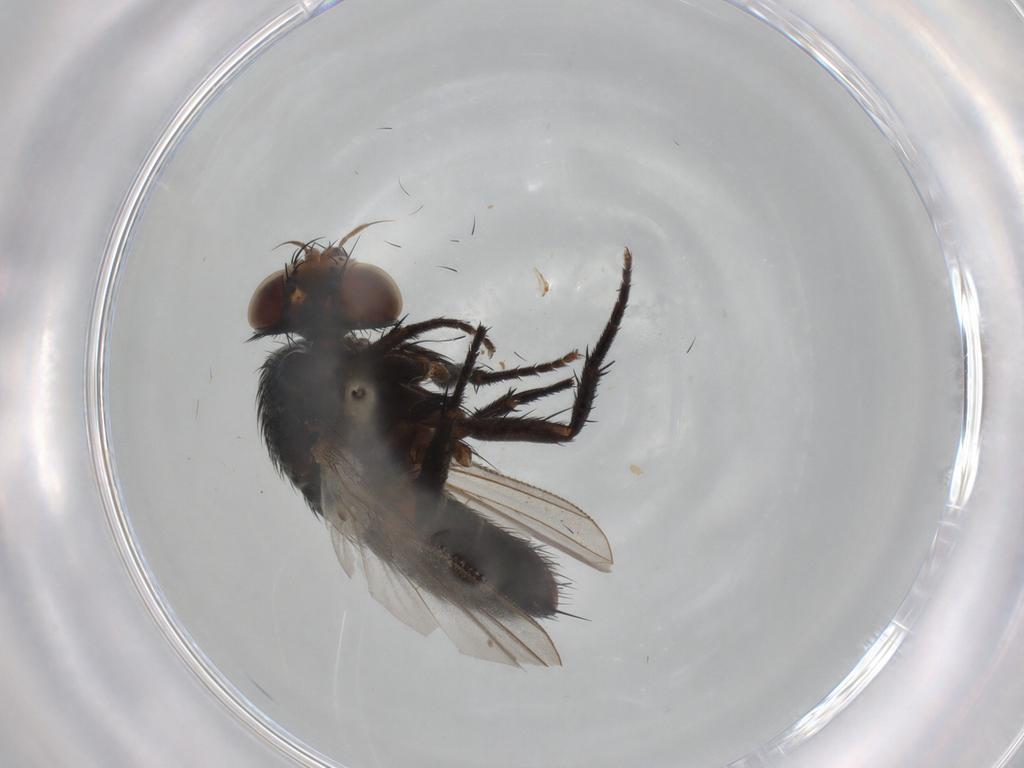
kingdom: Animalia
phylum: Arthropoda
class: Insecta
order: Diptera
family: Tachinidae
